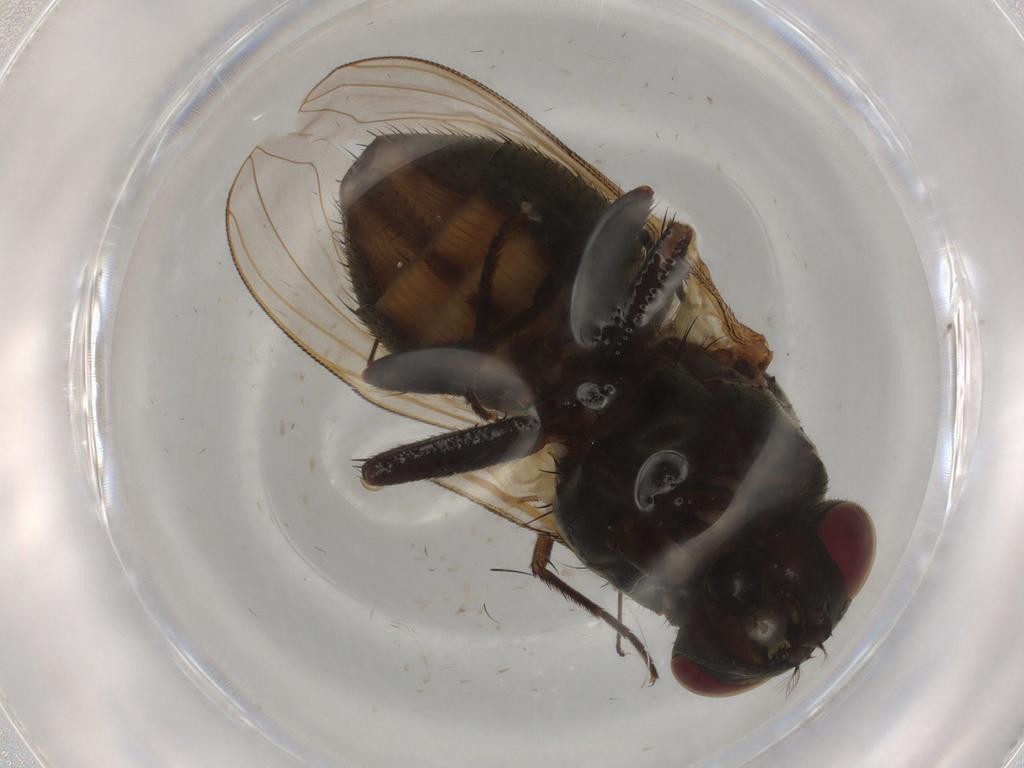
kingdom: Animalia
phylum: Arthropoda
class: Insecta
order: Diptera
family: Muscidae
